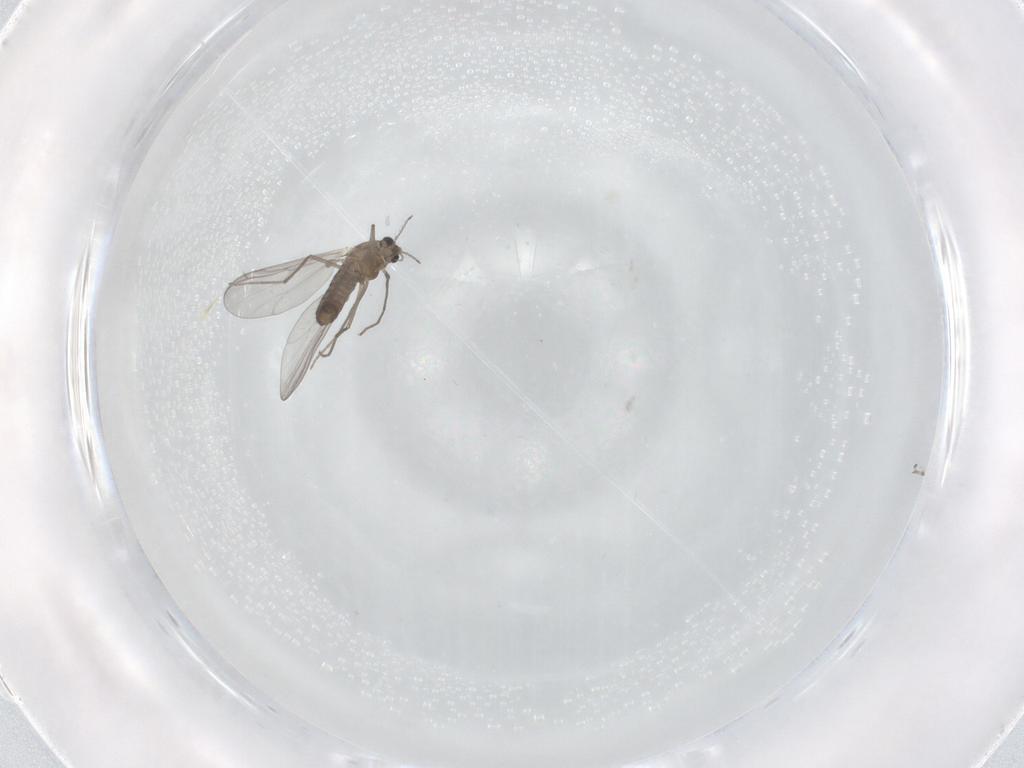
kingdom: Animalia
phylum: Arthropoda
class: Insecta
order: Diptera
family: Chironomidae
